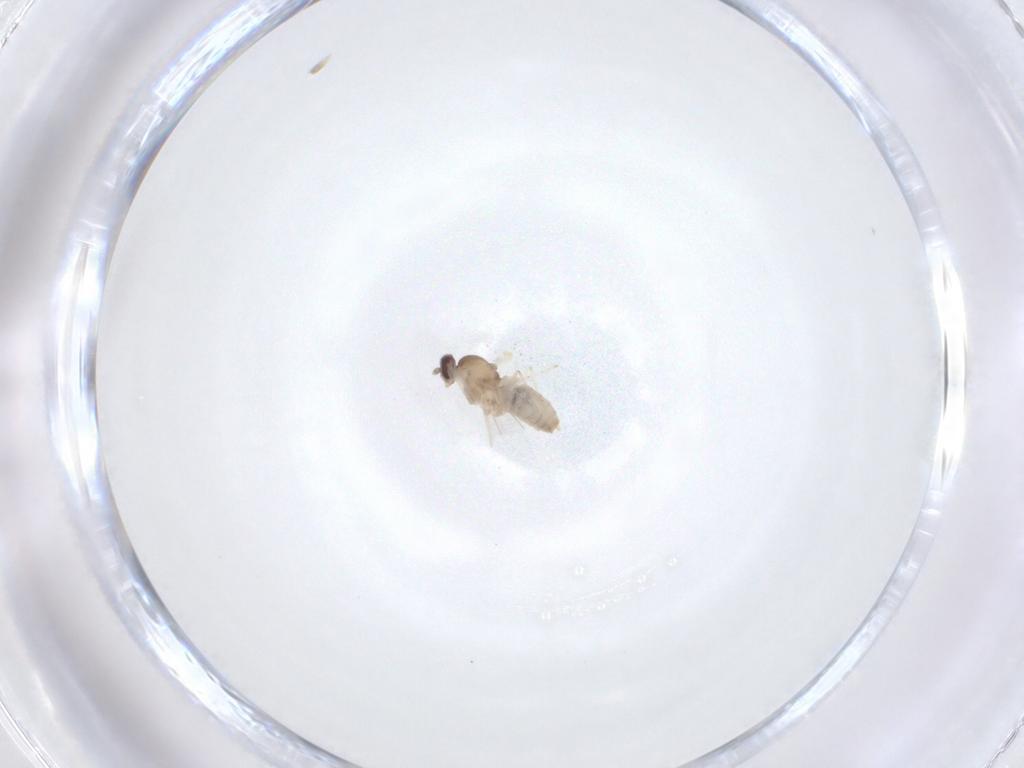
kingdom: Animalia
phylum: Arthropoda
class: Insecta
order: Diptera
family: Cecidomyiidae
